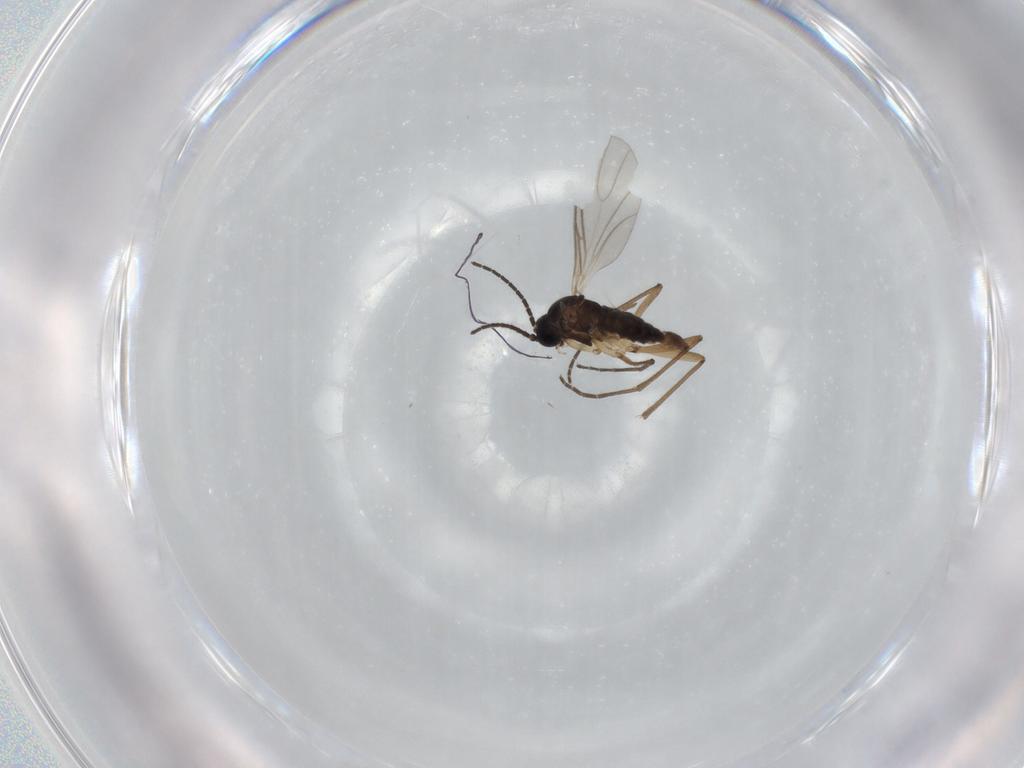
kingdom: Animalia
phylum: Arthropoda
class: Insecta
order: Diptera
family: Sciaridae
